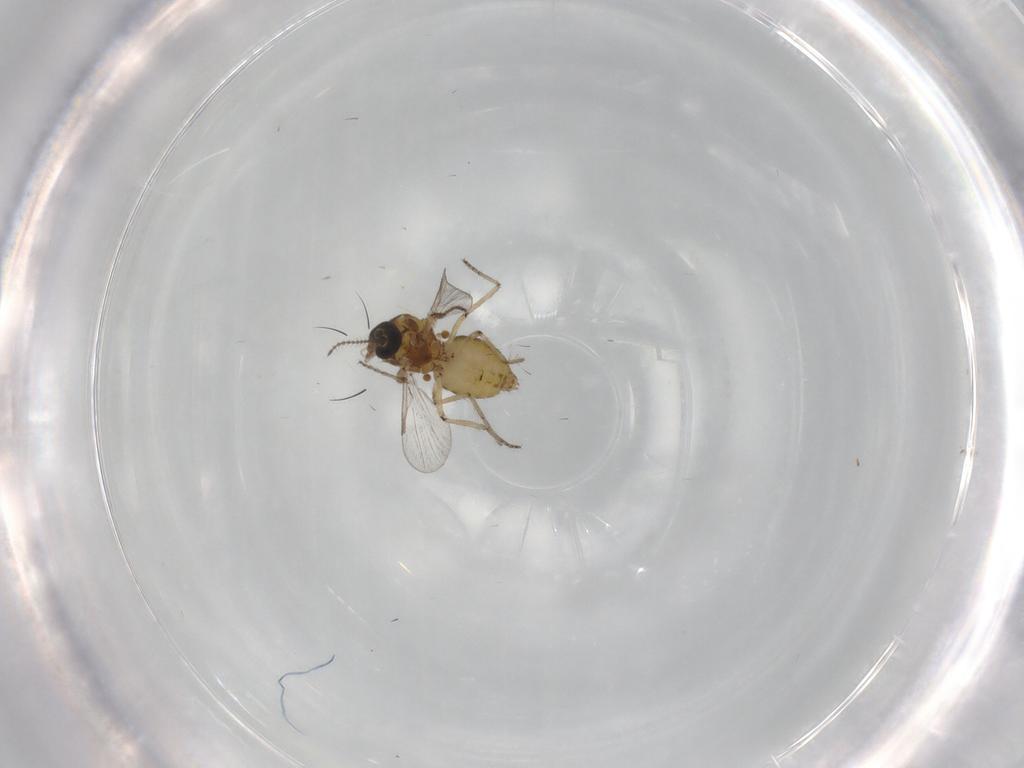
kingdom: Animalia
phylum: Arthropoda
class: Insecta
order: Diptera
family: Ceratopogonidae
